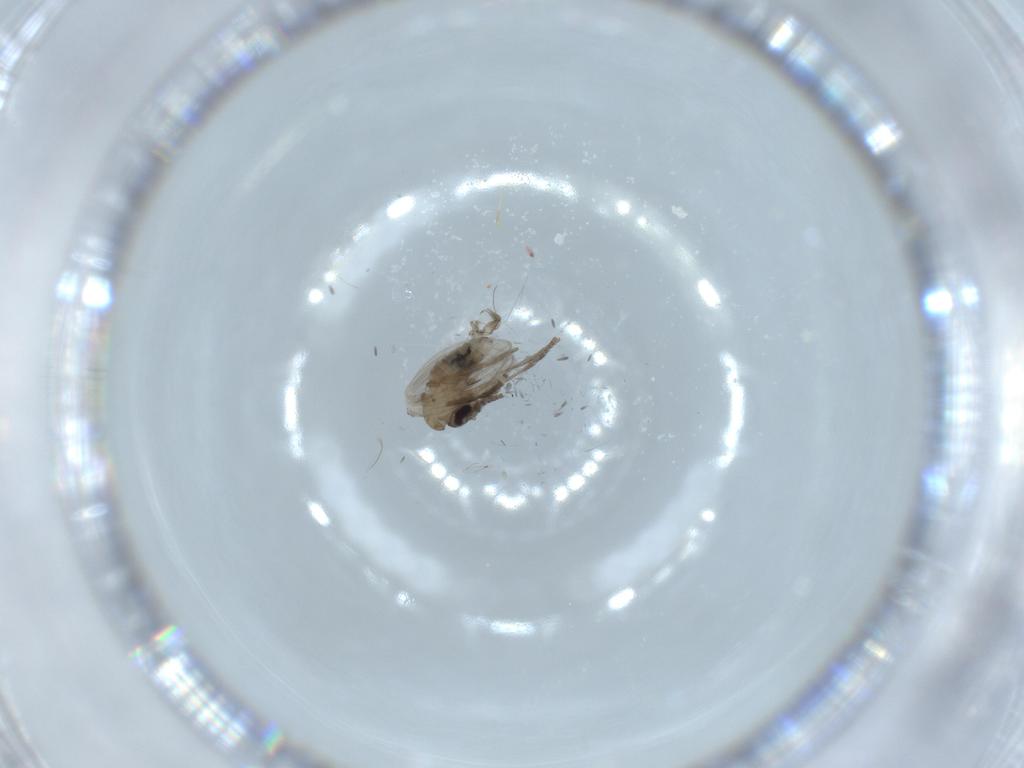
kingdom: Animalia
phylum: Arthropoda
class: Insecta
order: Diptera
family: Psychodidae
